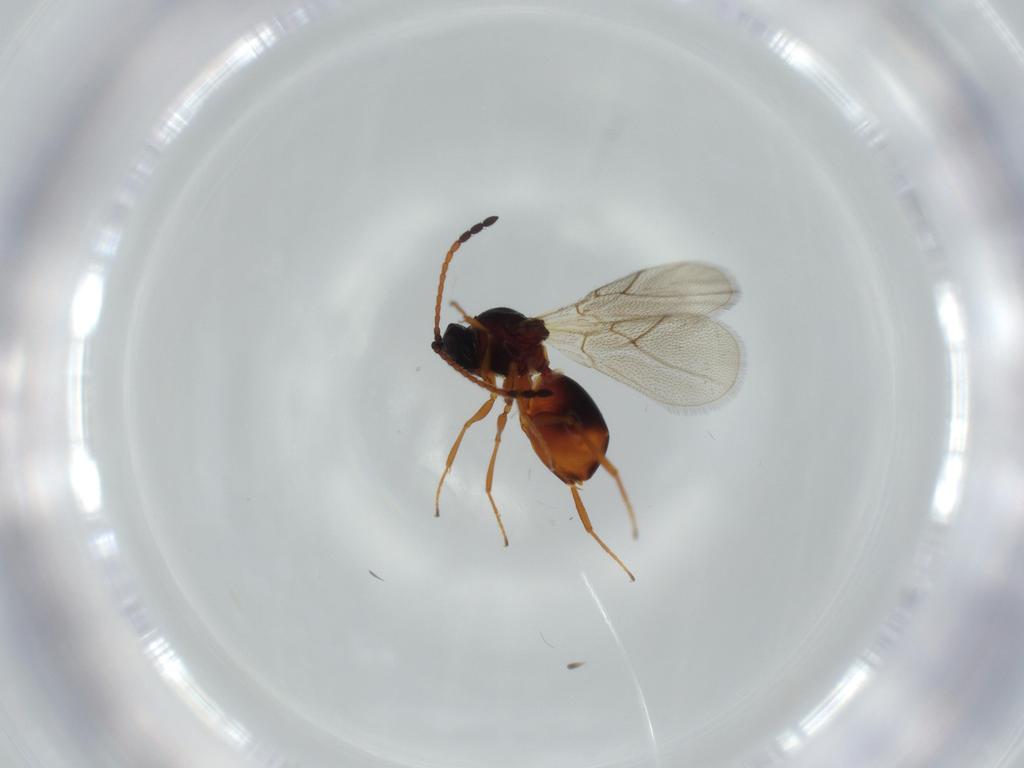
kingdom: Animalia
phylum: Arthropoda
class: Insecta
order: Hymenoptera
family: Figitidae
